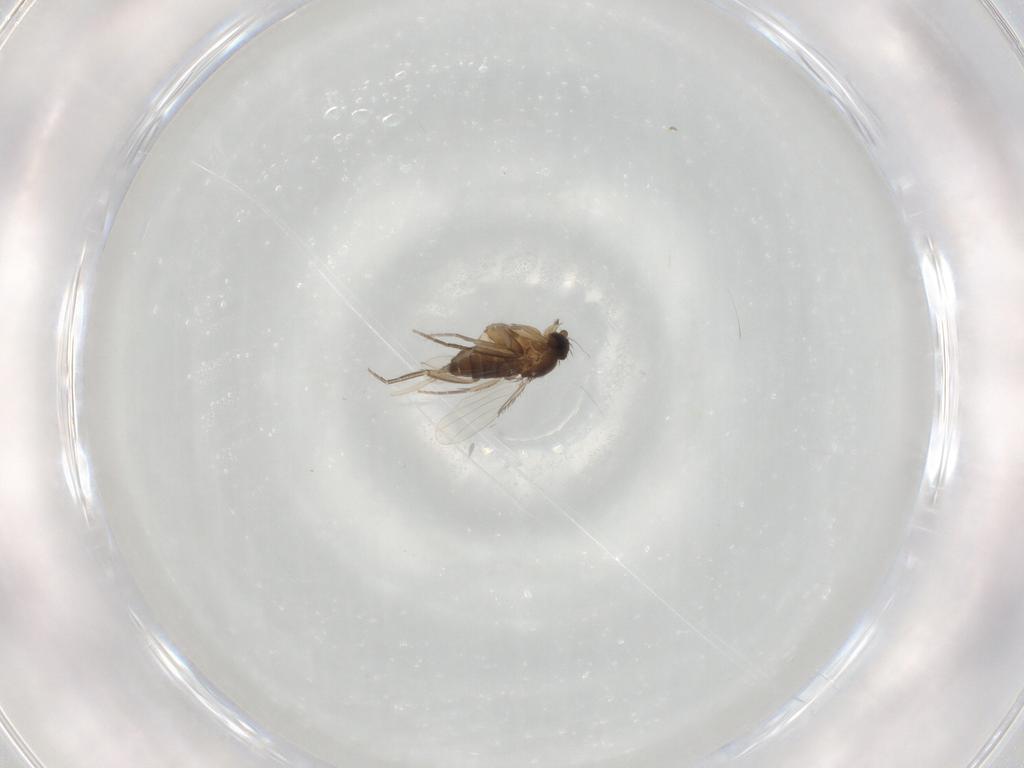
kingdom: Animalia
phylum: Arthropoda
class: Insecta
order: Diptera
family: Phoridae
